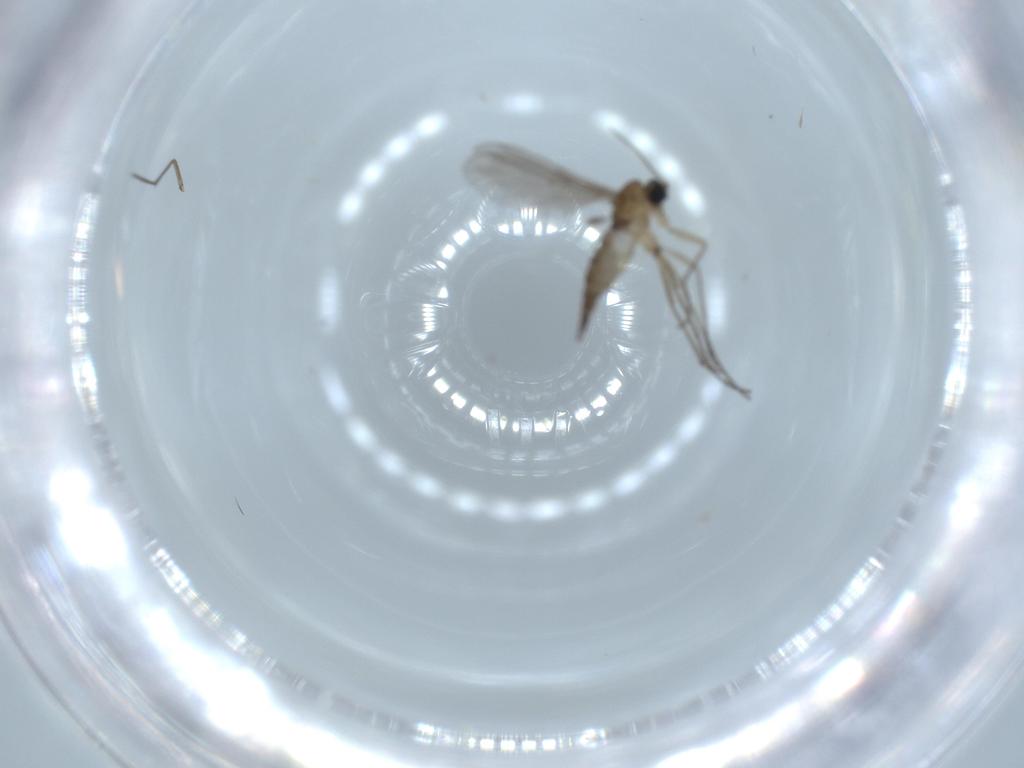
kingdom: Animalia
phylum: Arthropoda
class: Insecta
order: Diptera
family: Sciaridae
